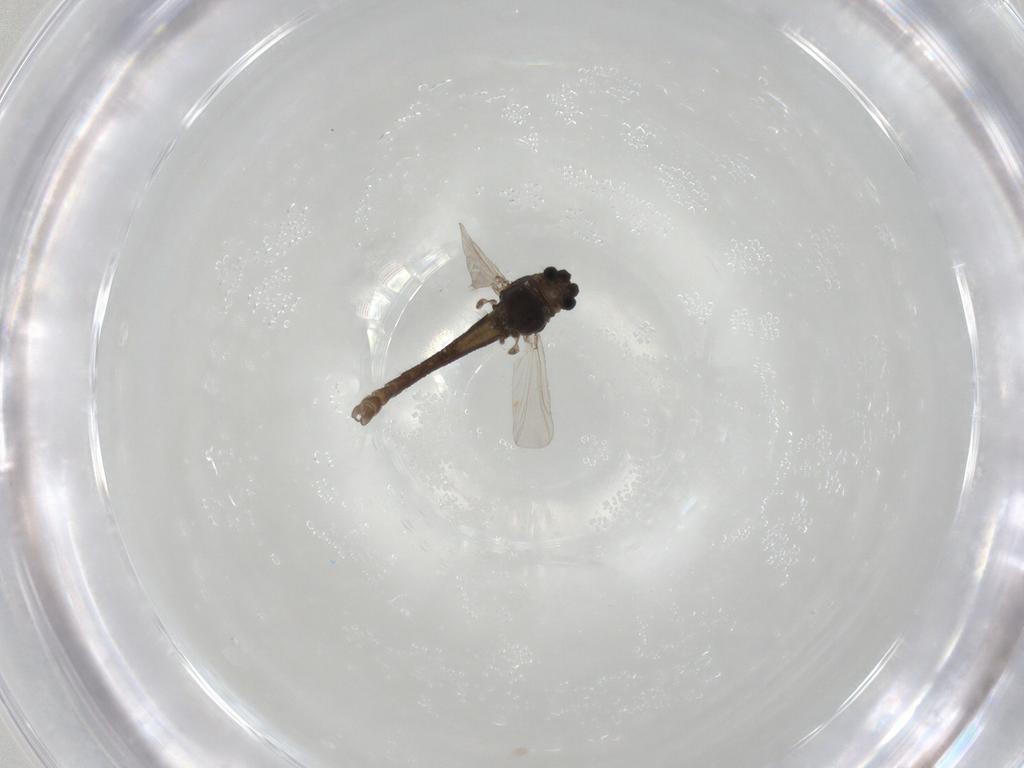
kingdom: Animalia
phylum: Arthropoda
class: Insecta
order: Diptera
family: Chironomidae
